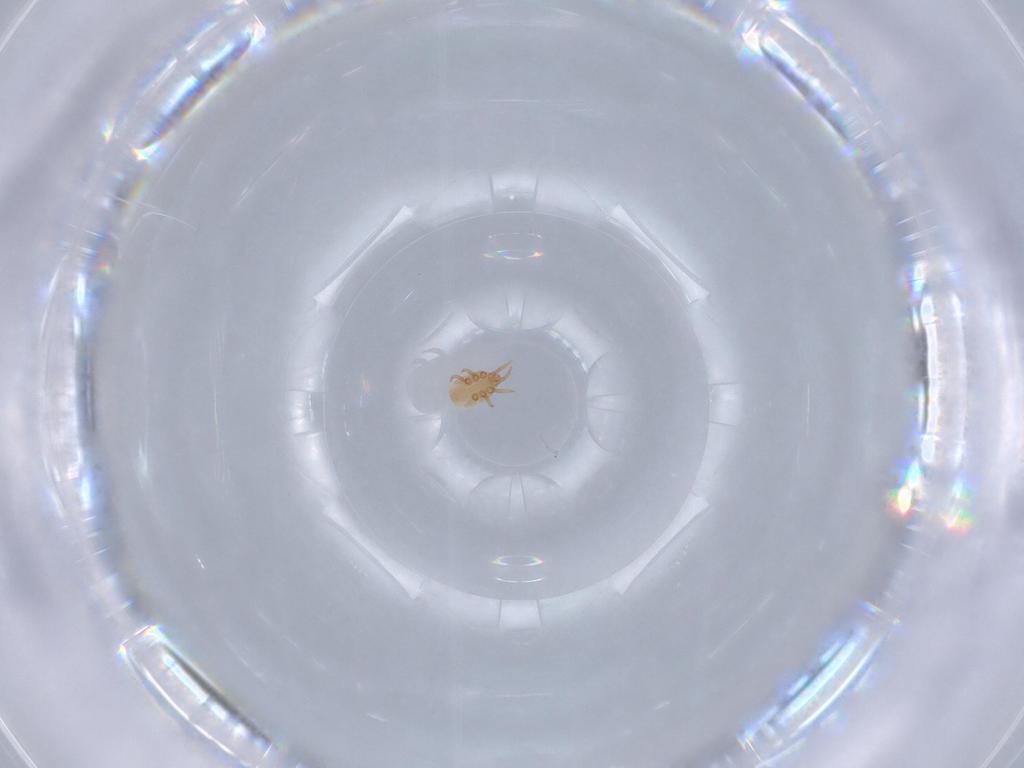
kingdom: Animalia
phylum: Arthropoda
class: Arachnida
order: Mesostigmata
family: Dinychidae
